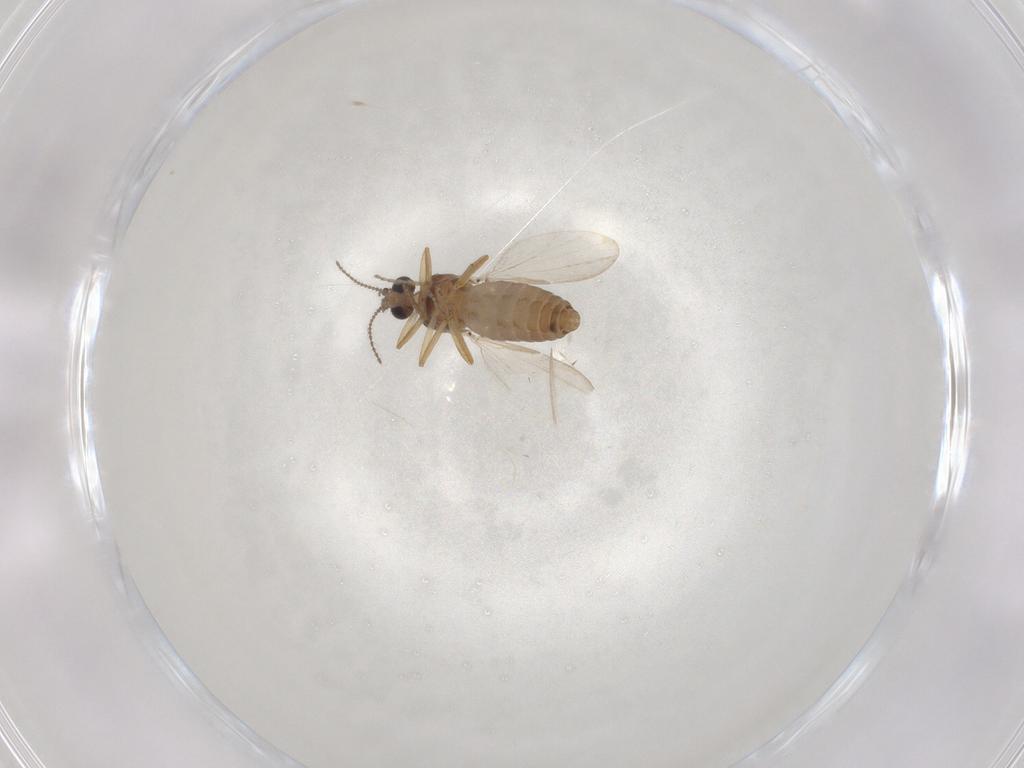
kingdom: Animalia
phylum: Arthropoda
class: Insecta
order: Diptera
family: Ceratopogonidae
